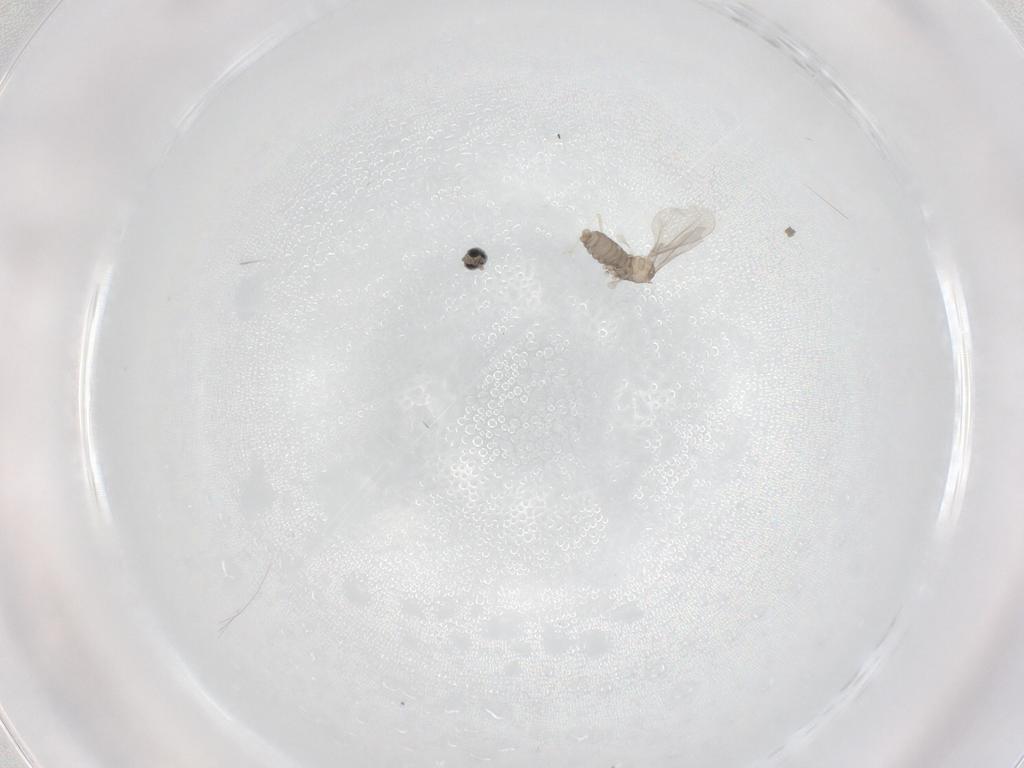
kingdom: Animalia
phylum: Arthropoda
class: Insecta
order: Diptera
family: Cecidomyiidae
